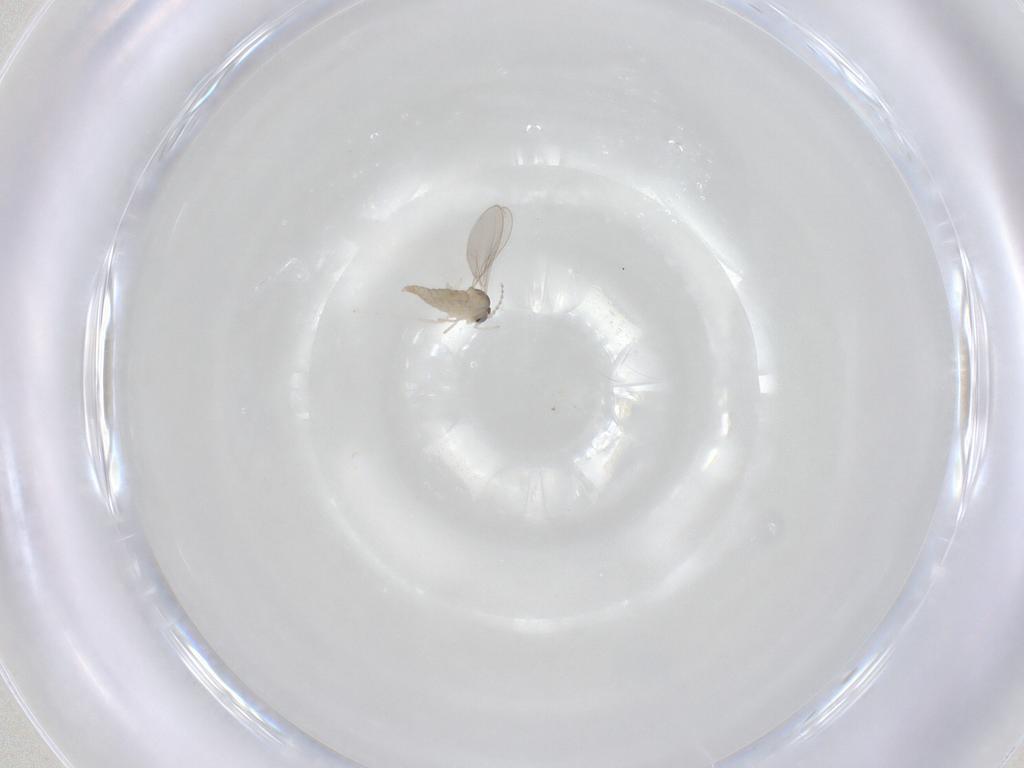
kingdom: Animalia
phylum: Arthropoda
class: Insecta
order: Diptera
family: Cecidomyiidae
